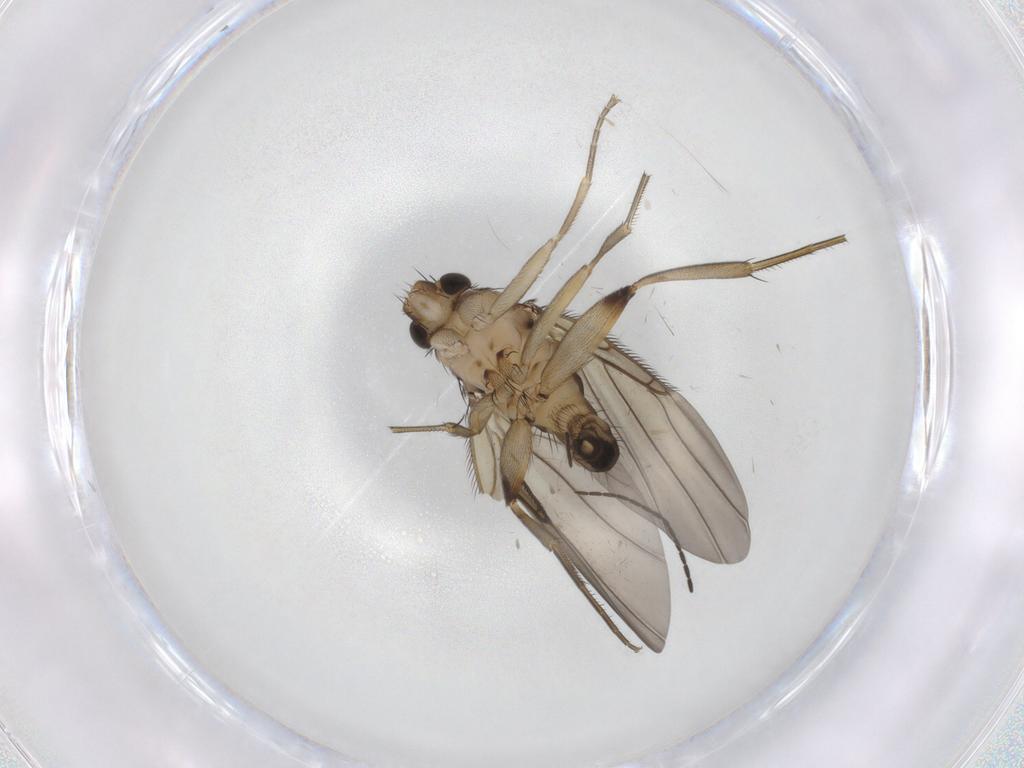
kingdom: Animalia
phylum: Arthropoda
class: Insecta
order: Diptera
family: Phoridae
